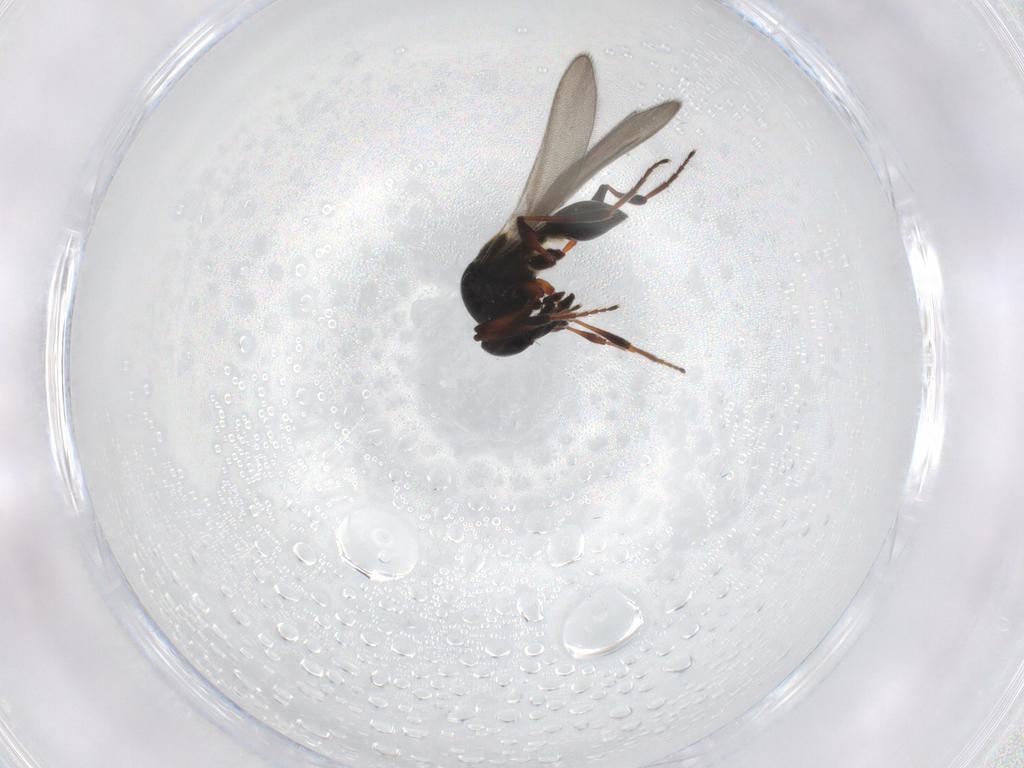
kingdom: Animalia
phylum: Arthropoda
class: Insecta
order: Hymenoptera
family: Platygastridae
